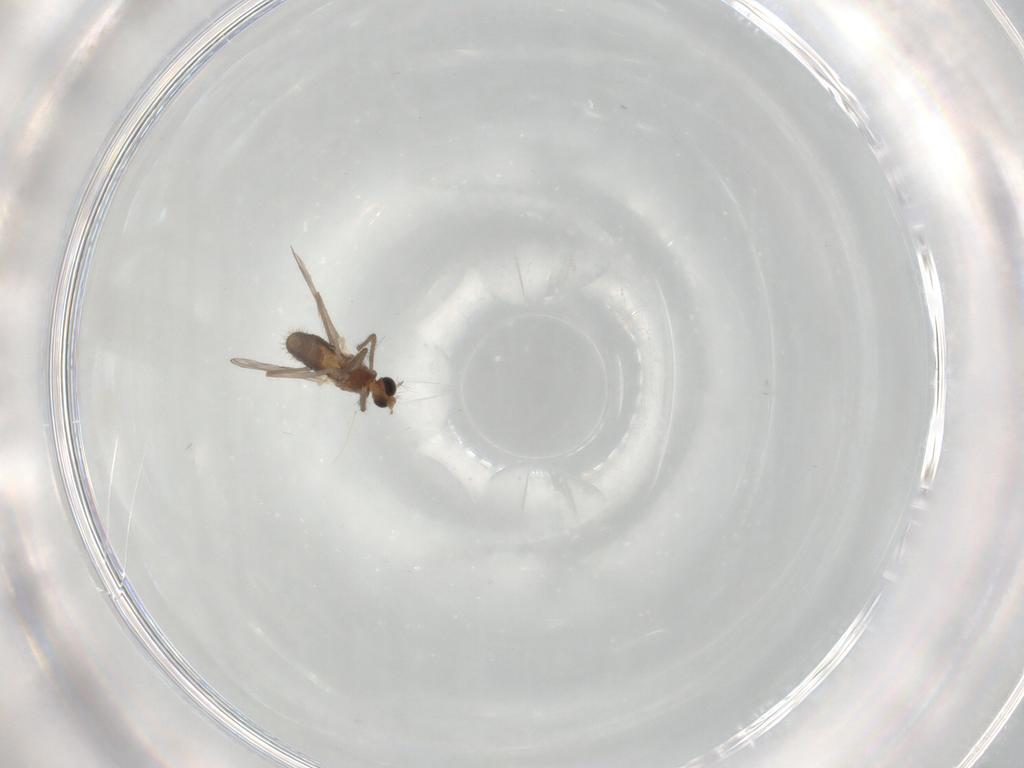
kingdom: Animalia
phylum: Arthropoda
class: Insecta
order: Diptera
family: Chironomidae
